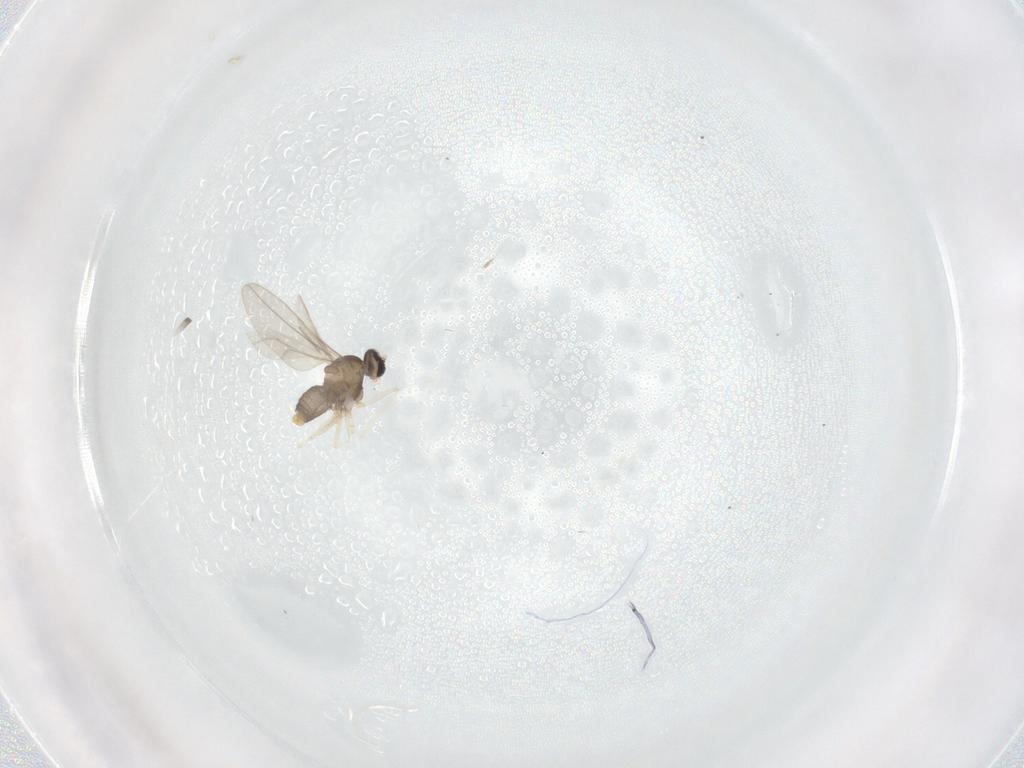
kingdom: Animalia
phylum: Arthropoda
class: Insecta
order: Diptera
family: Cecidomyiidae
